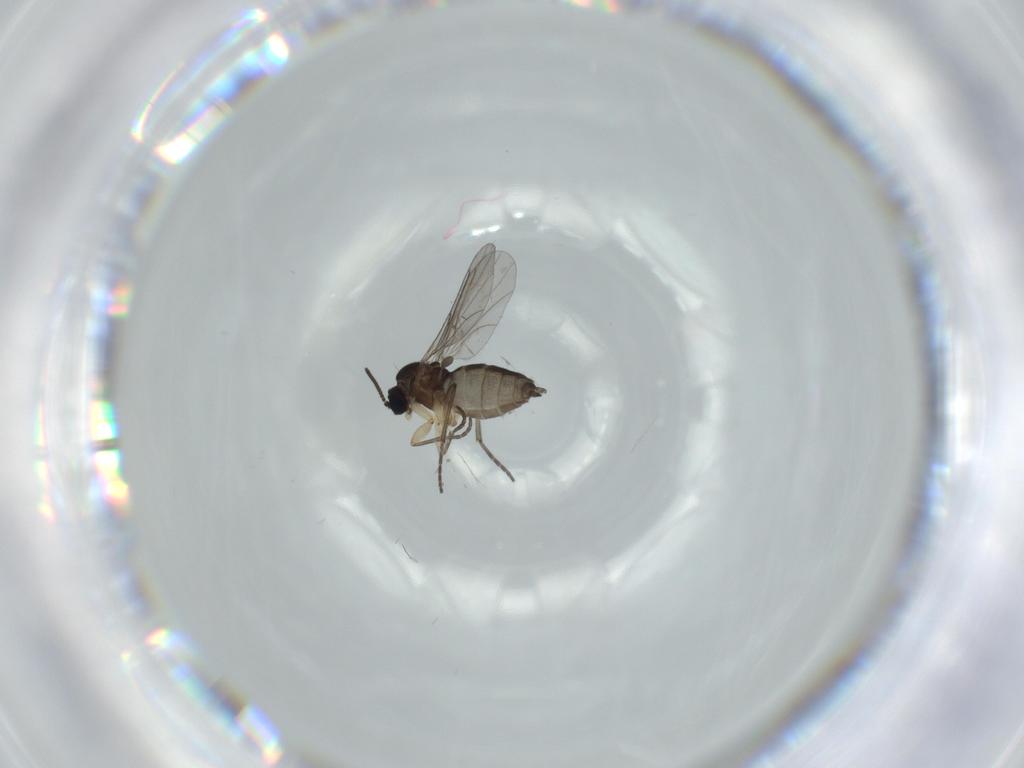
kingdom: Animalia
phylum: Arthropoda
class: Insecta
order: Diptera
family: Sciaridae
